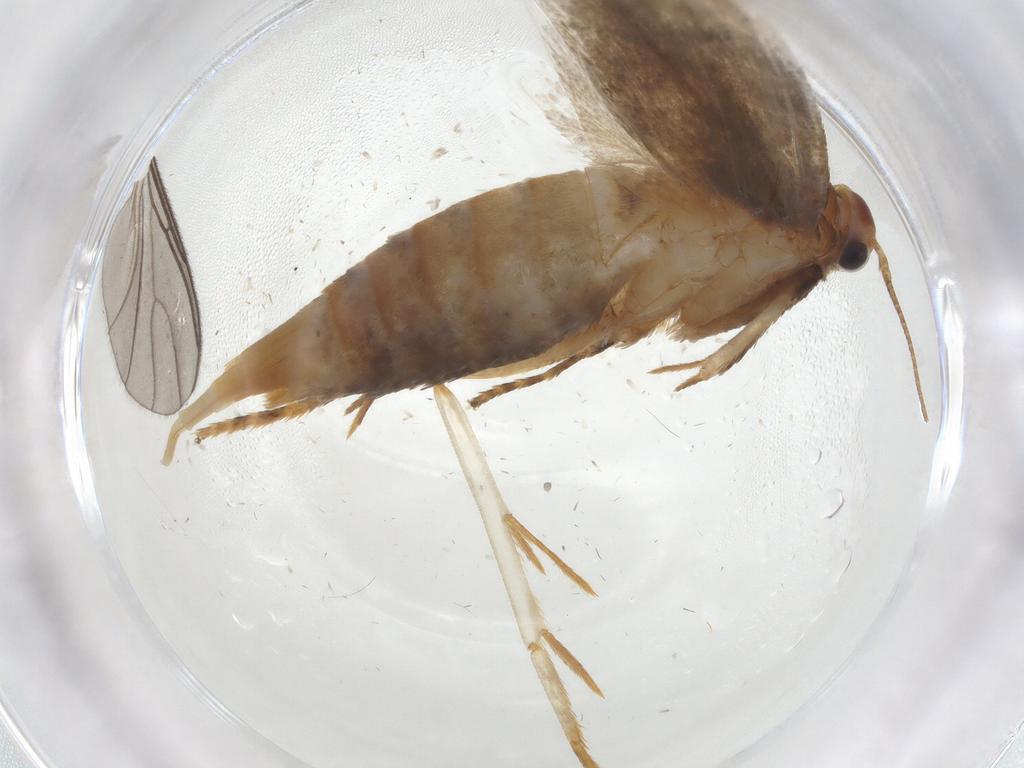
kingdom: Animalia
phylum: Arthropoda
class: Insecta
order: Lepidoptera
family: Oecophoridae
